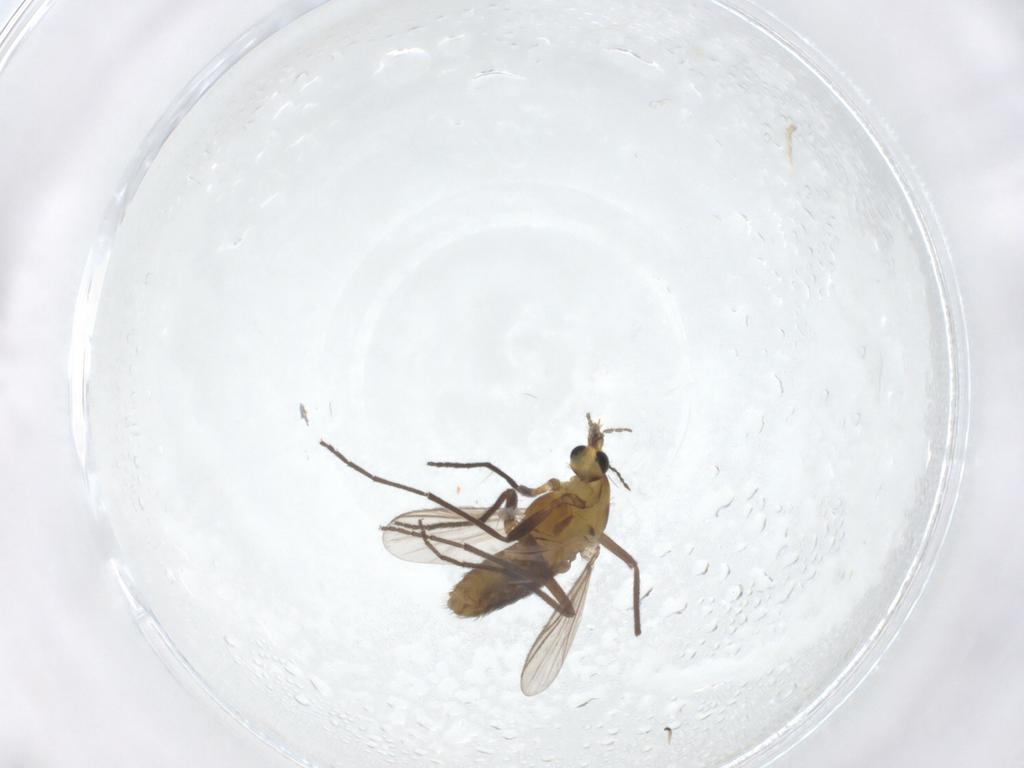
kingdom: Animalia
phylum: Arthropoda
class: Insecta
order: Diptera
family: Chironomidae
